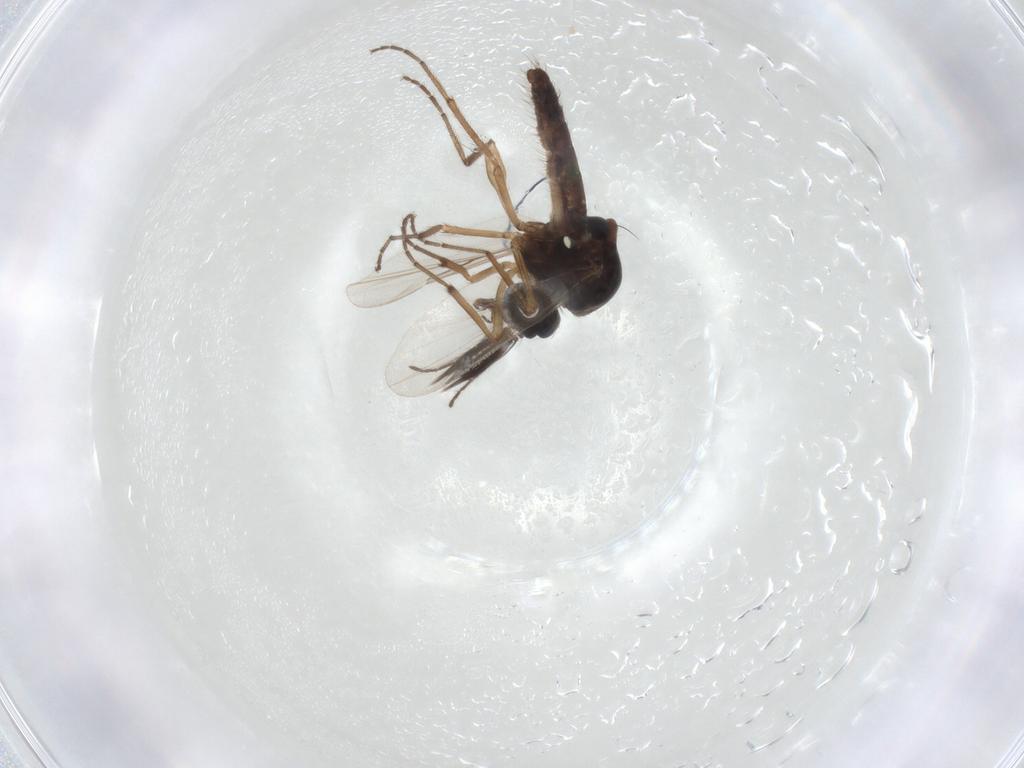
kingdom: Animalia
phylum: Arthropoda
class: Insecta
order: Diptera
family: Ceratopogonidae
